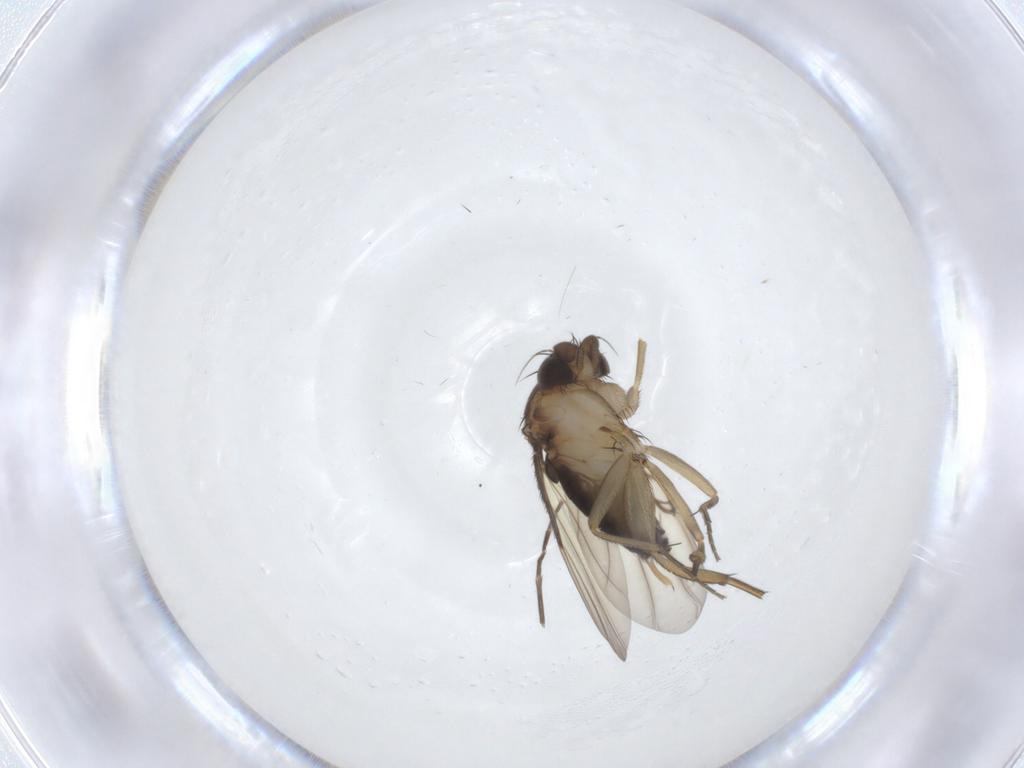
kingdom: Animalia
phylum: Arthropoda
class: Insecta
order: Diptera
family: Phoridae
